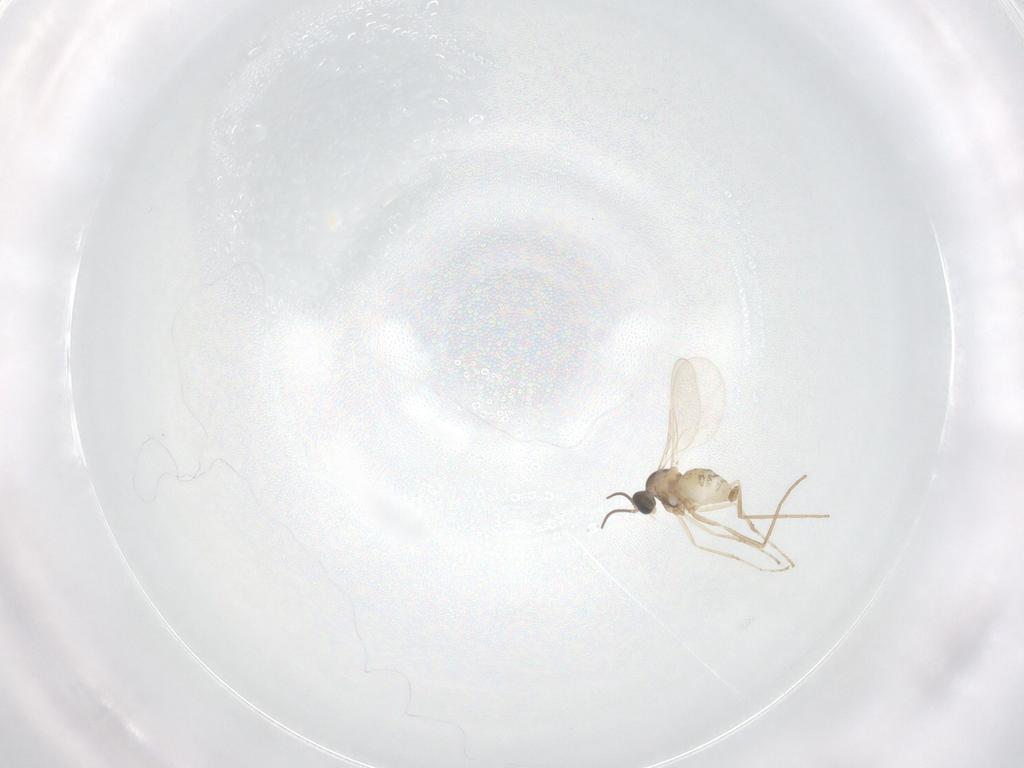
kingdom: Animalia
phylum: Arthropoda
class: Insecta
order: Diptera
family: Cecidomyiidae
